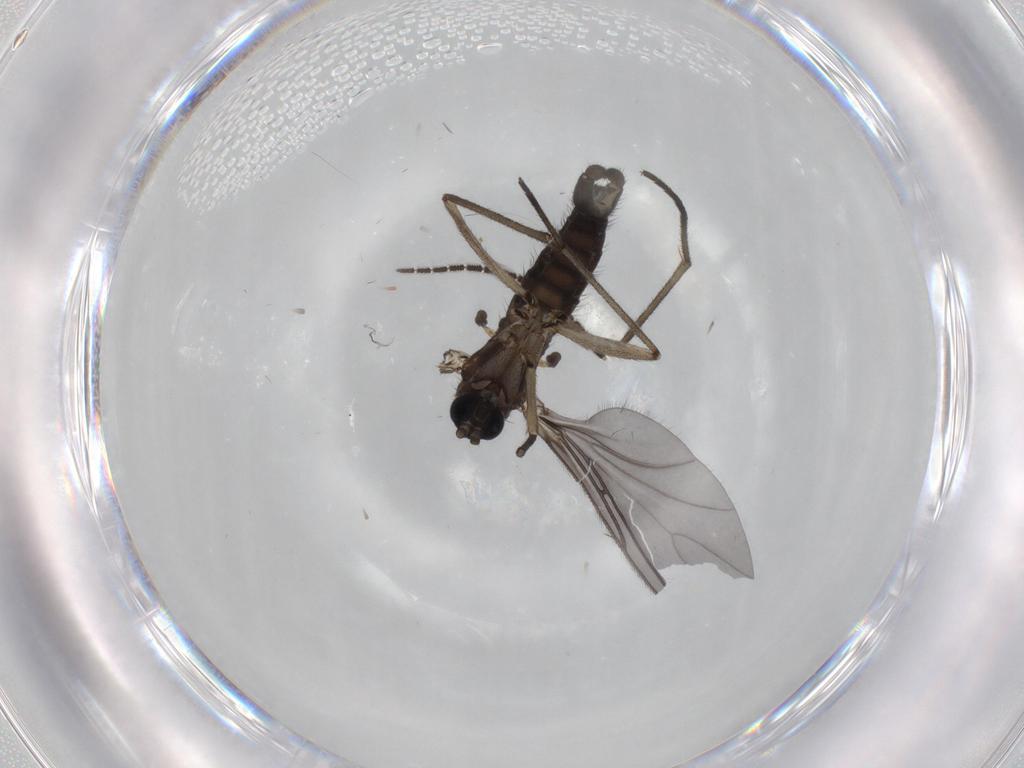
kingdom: Animalia
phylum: Arthropoda
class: Insecta
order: Diptera
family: Sciaridae
